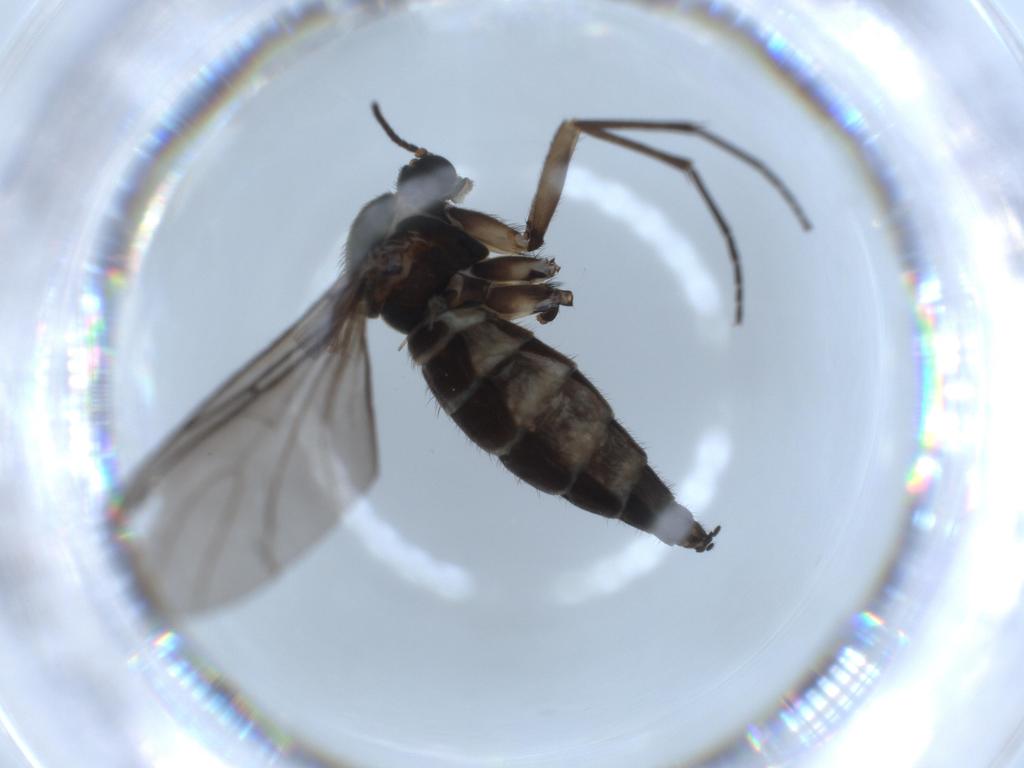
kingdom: Animalia
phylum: Arthropoda
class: Insecta
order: Diptera
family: Sciaridae
